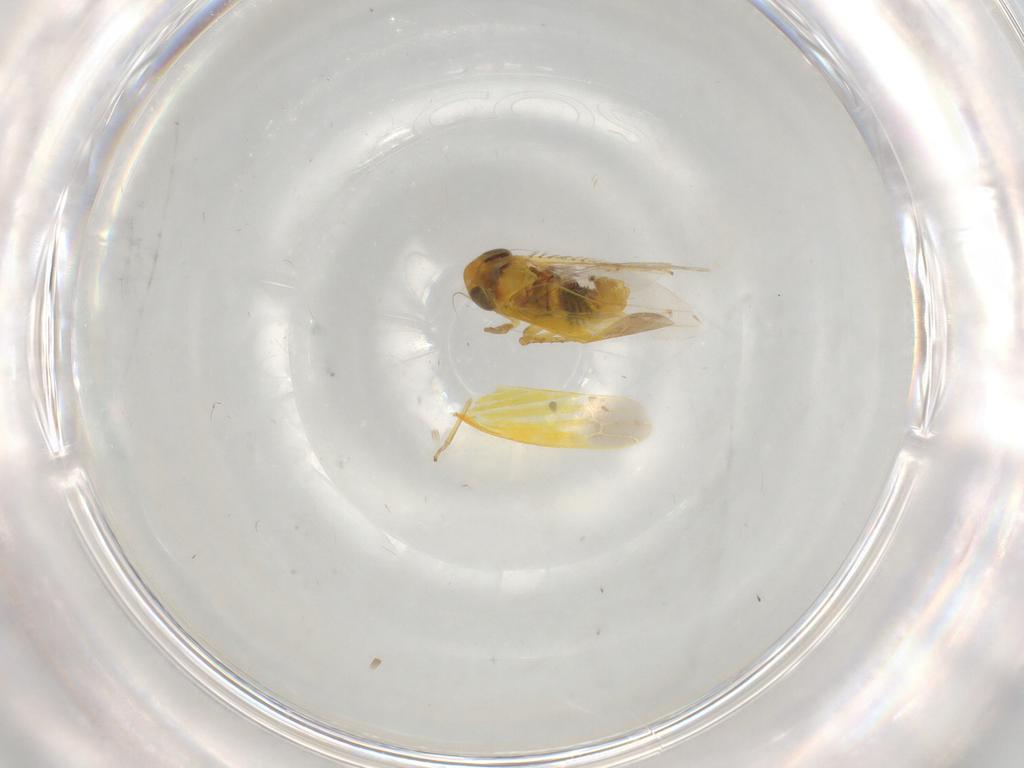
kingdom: Animalia
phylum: Arthropoda
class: Insecta
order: Hemiptera
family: Cicadellidae
